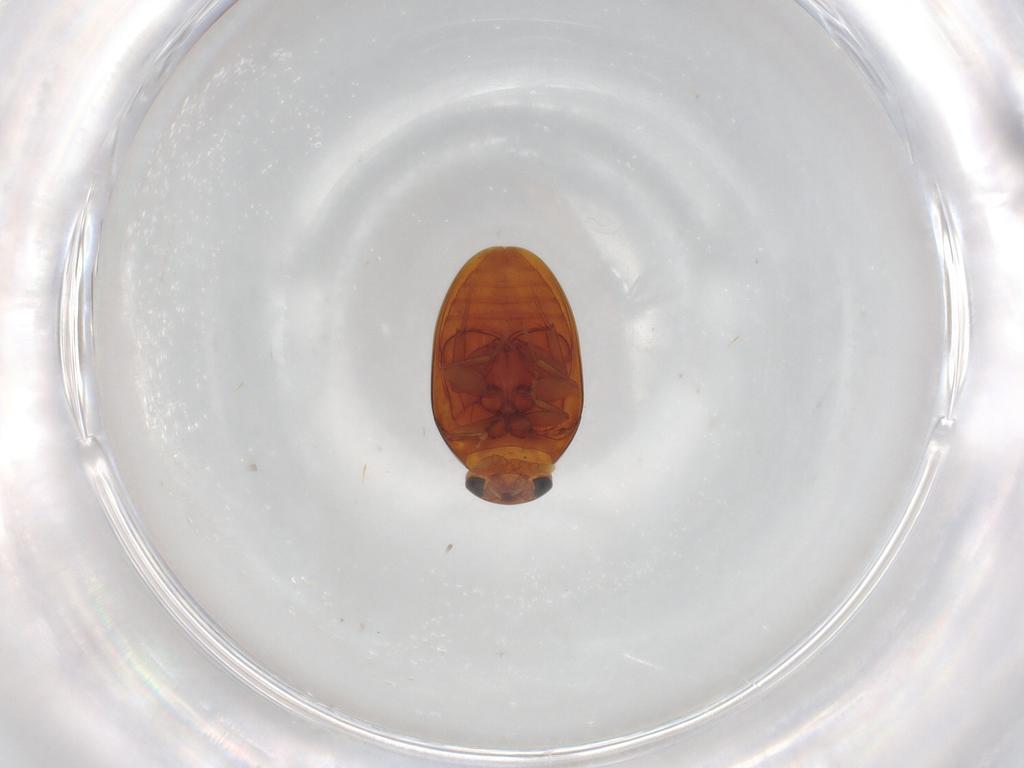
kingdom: Animalia
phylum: Arthropoda
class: Insecta
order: Coleoptera
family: Phalacridae
